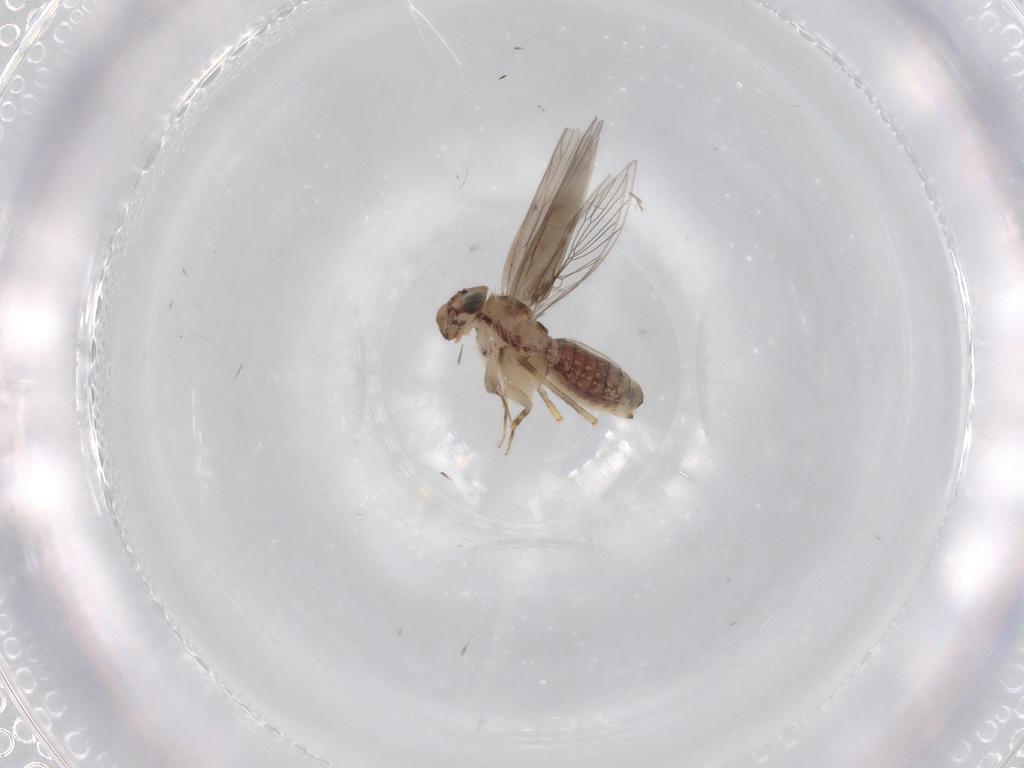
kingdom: Animalia
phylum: Arthropoda
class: Insecta
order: Psocodea
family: Lepidopsocidae
